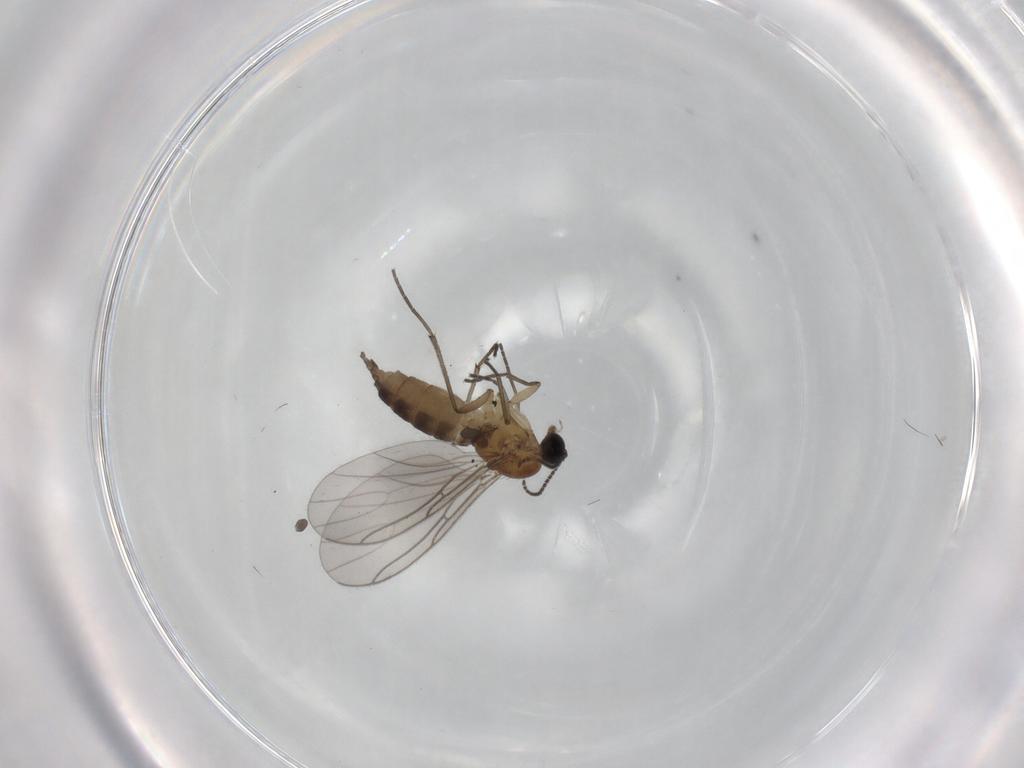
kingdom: Animalia
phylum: Arthropoda
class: Insecta
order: Diptera
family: Sciaridae
